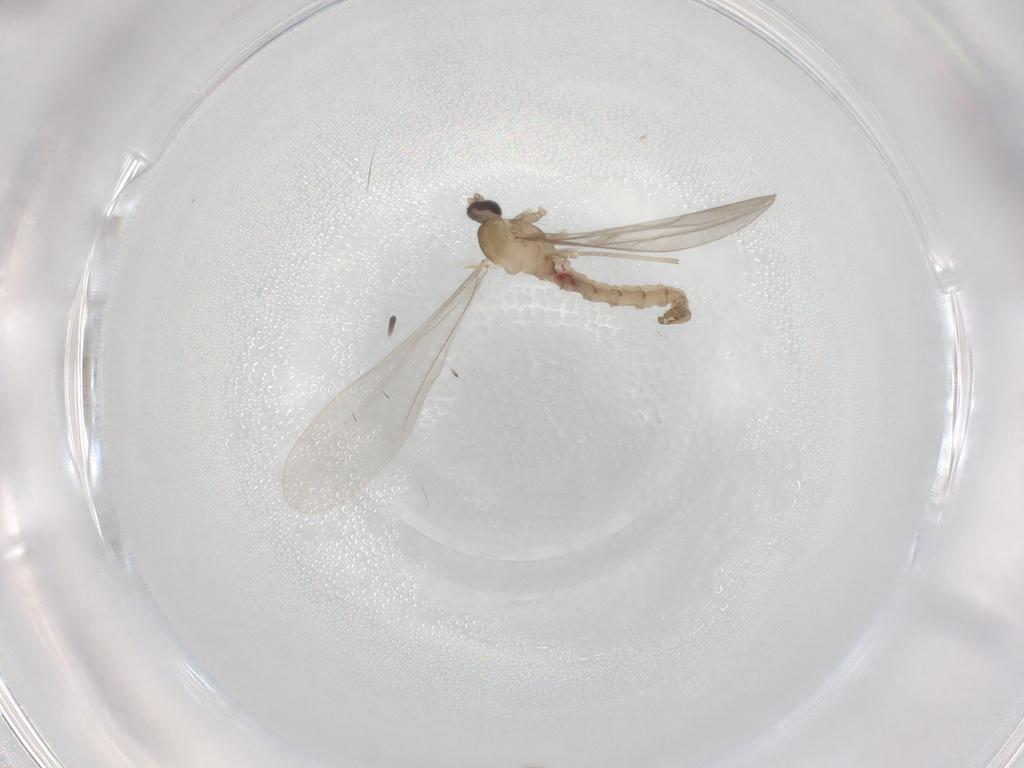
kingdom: Animalia
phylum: Arthropoda
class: Insecta
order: Diptera
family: Cecidomyiidae
